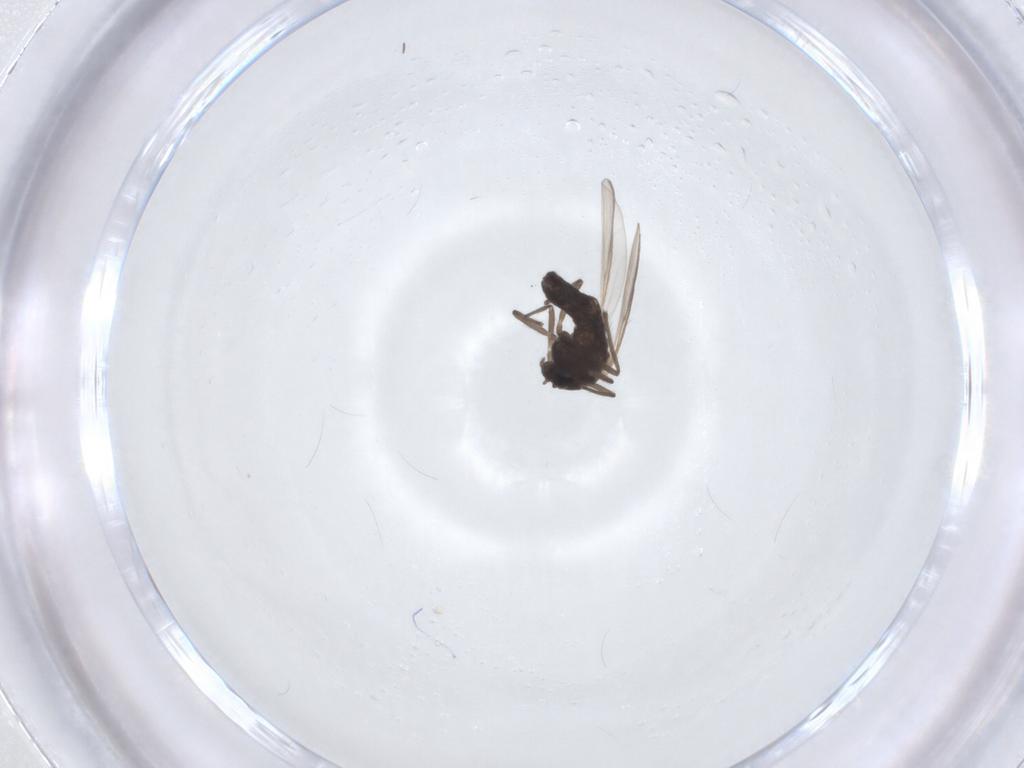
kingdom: Animalia
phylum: Arthropoda
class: Insecta
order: Diptera
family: Chironomidae
